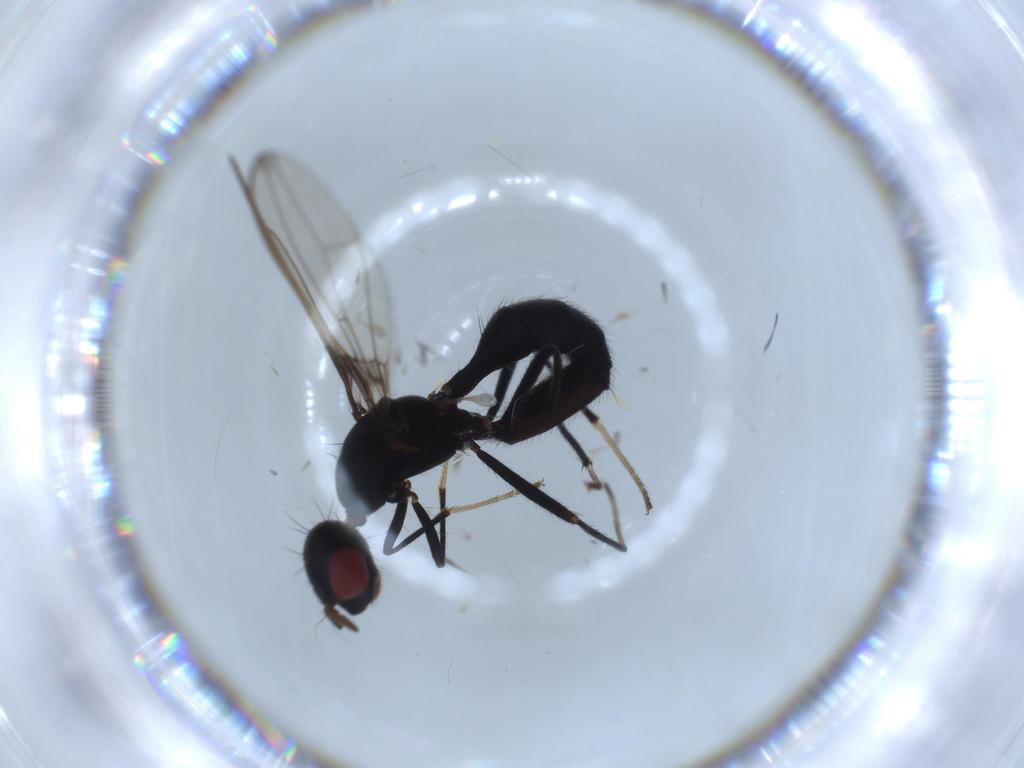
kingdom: Animalia
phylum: Arthropoda
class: Insecta
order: Diptera
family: Richardiidae
